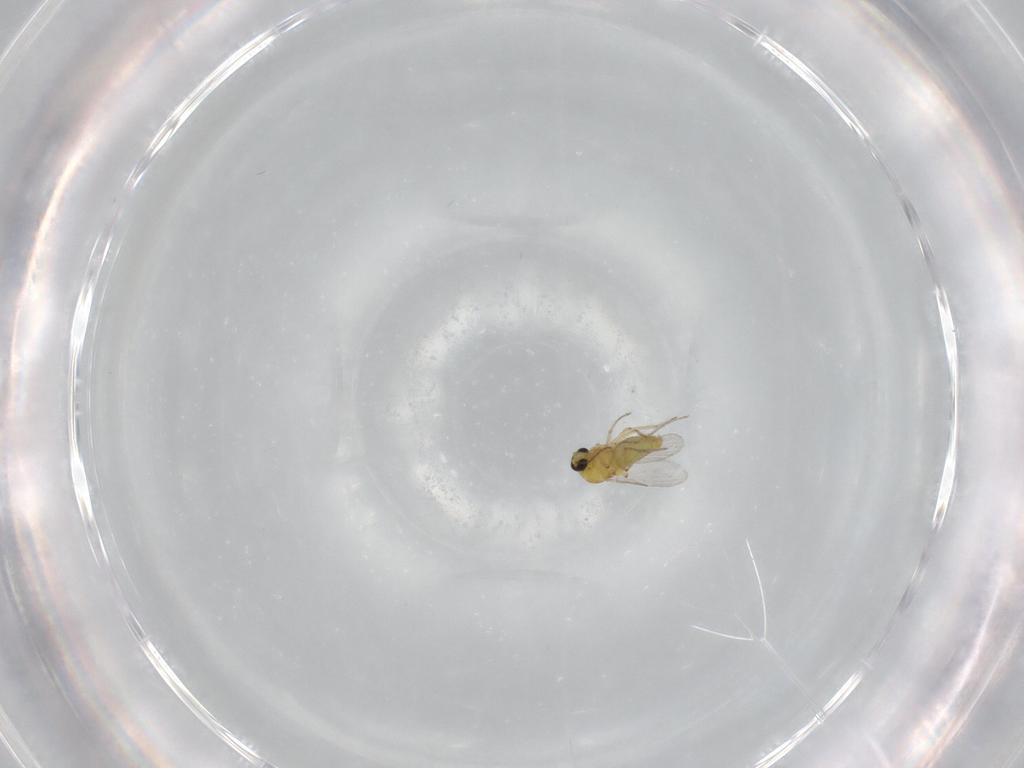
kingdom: Animalia
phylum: Arthropoda
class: Insecta
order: Diptera
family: Ceratopogonidae
